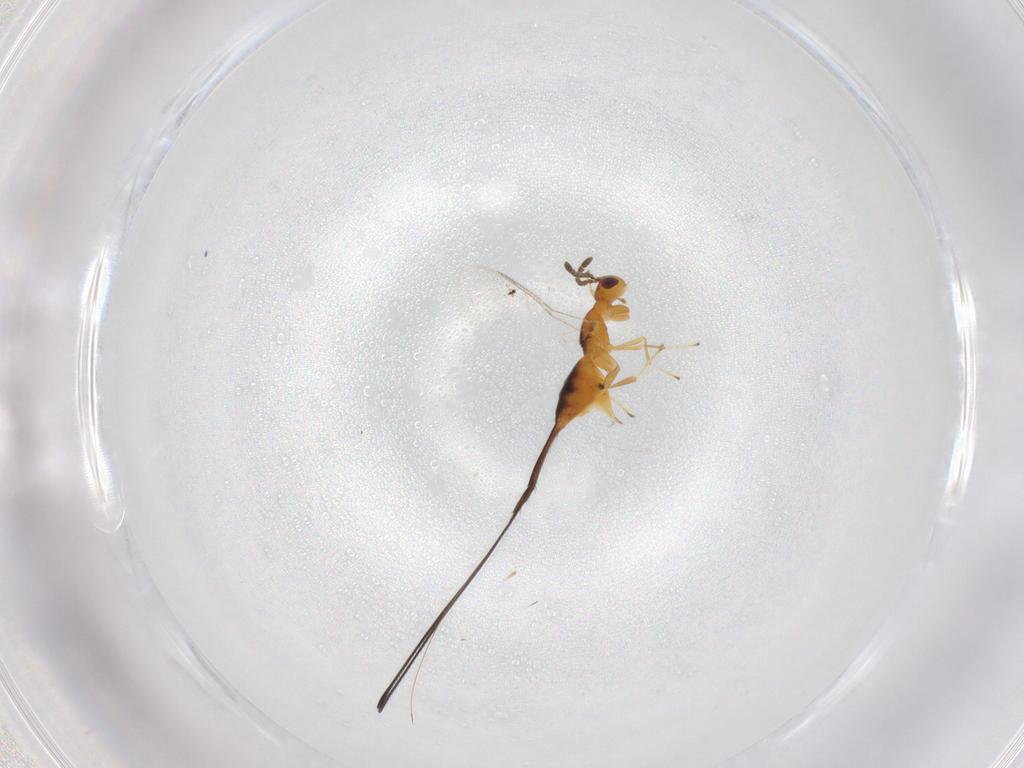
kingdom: Animalia
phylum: Arthropoda
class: Insecta
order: Hymenoptera
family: Pteromalidae
